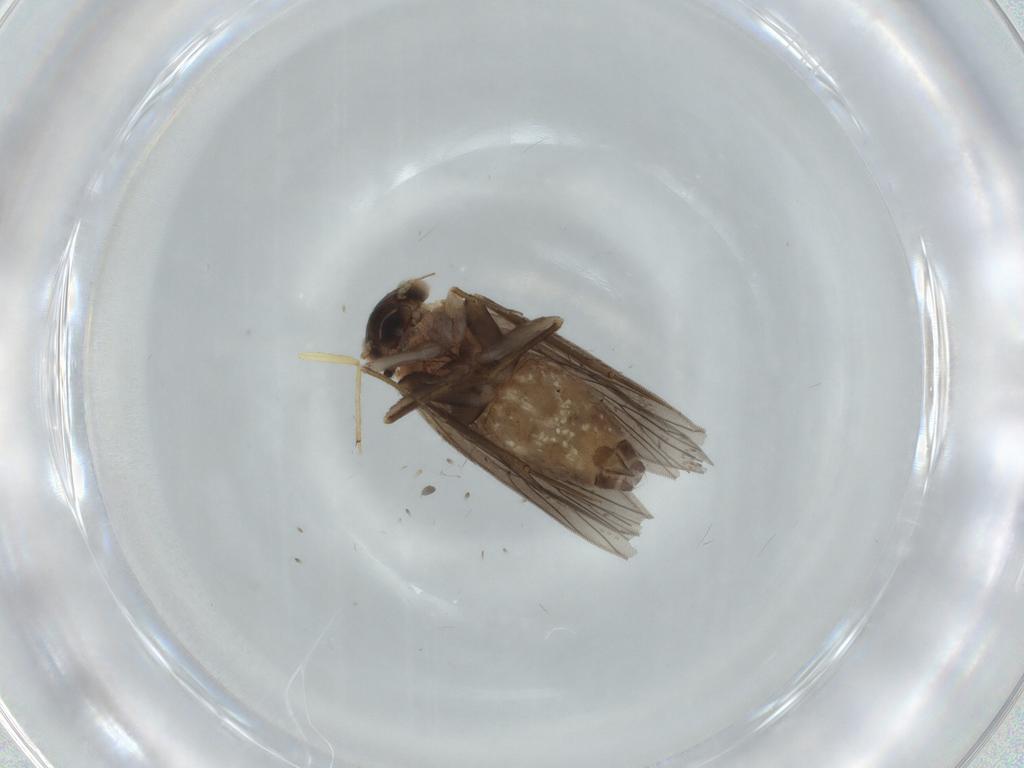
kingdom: Animalia
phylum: Arthropoda
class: Insecta
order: Psocodea
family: Lepidopsocidae
